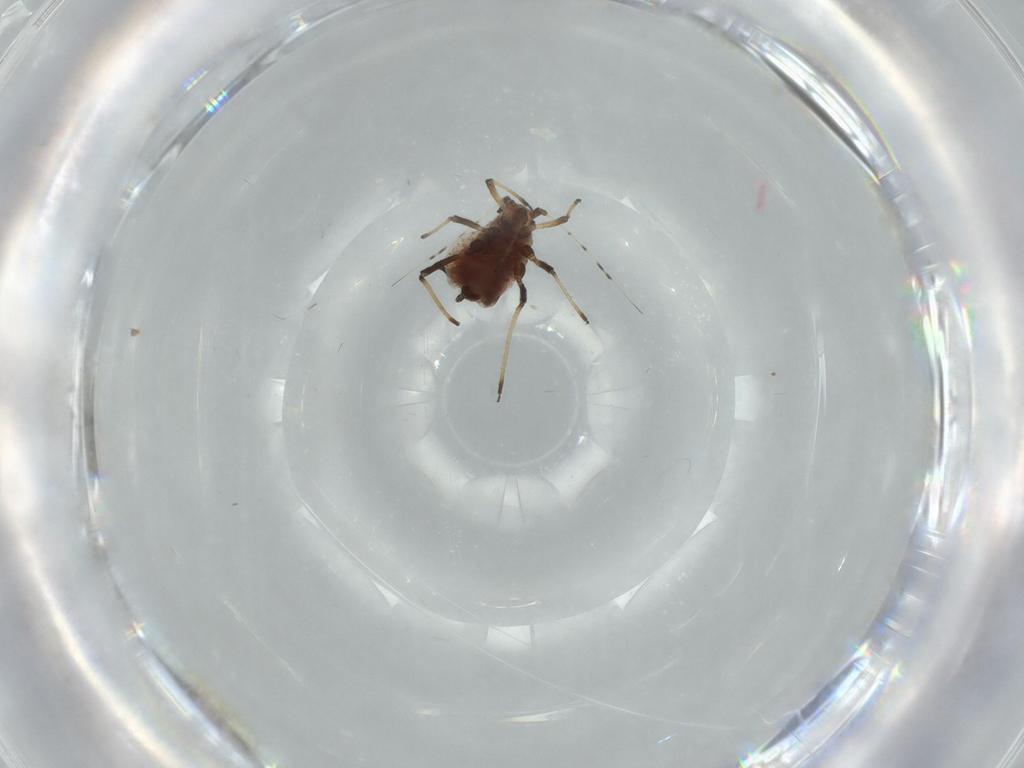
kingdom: Animalia
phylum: Arthropoda
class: Insecta
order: Hemiptera
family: Aphididae
